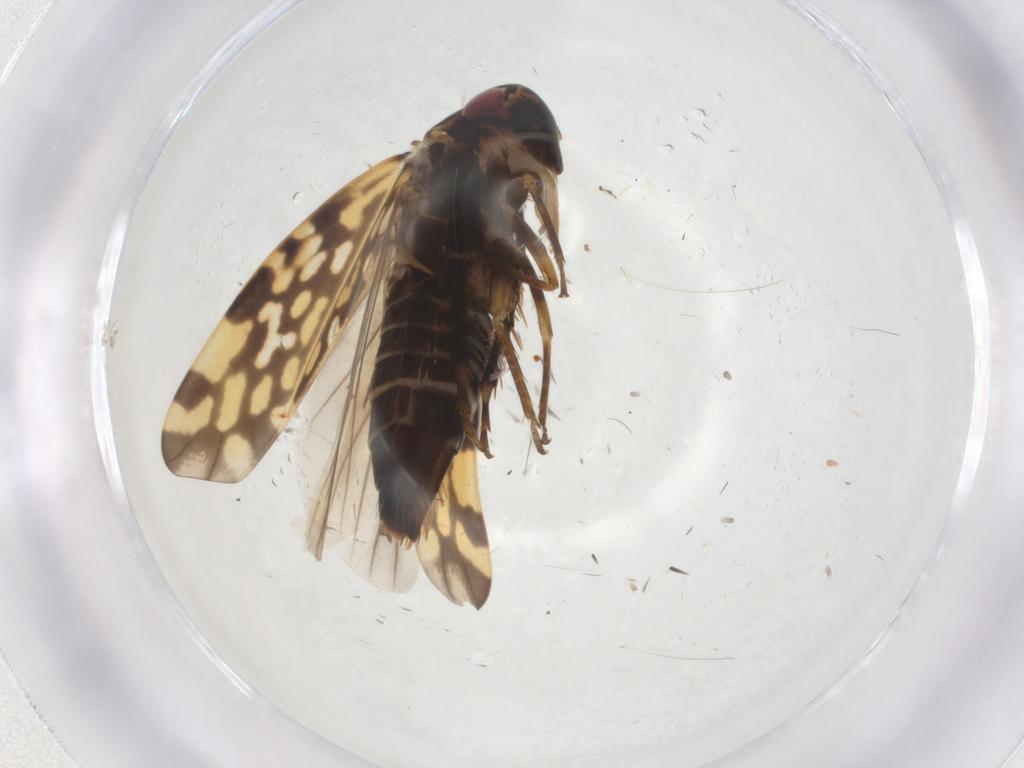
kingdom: Animalia
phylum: Arthropoda
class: Insecta
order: Hemiptera
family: Cicadellidae
